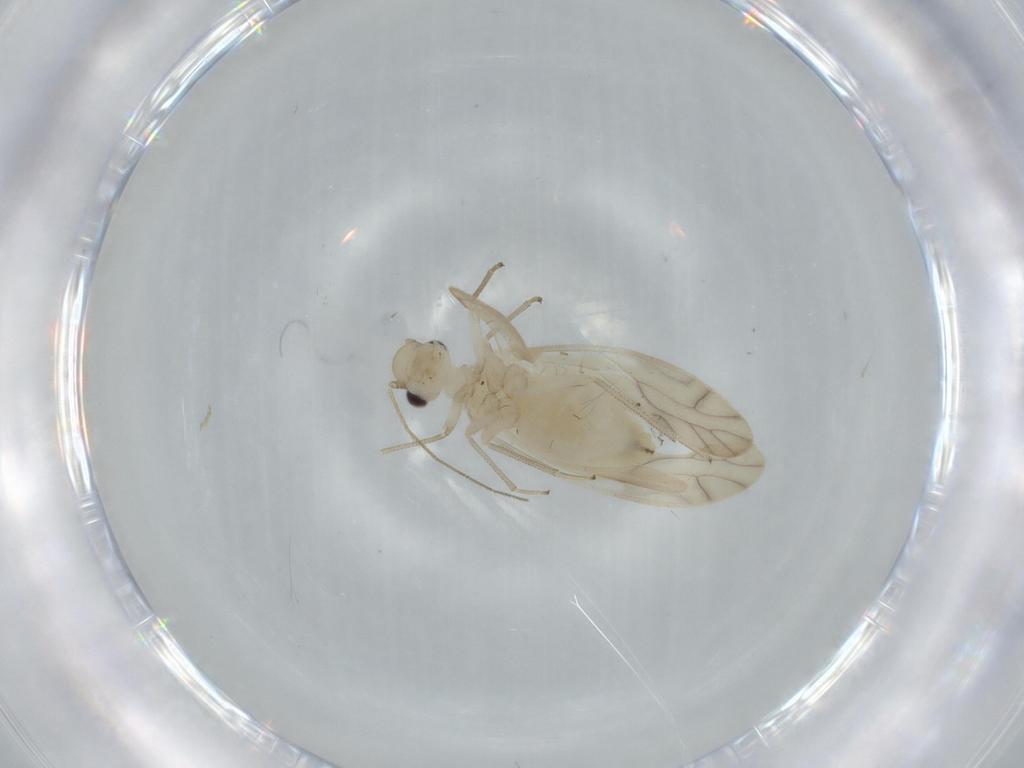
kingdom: Animalia
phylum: Arthropoda
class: Insecta
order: Psocodea
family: Caeciliusidae
